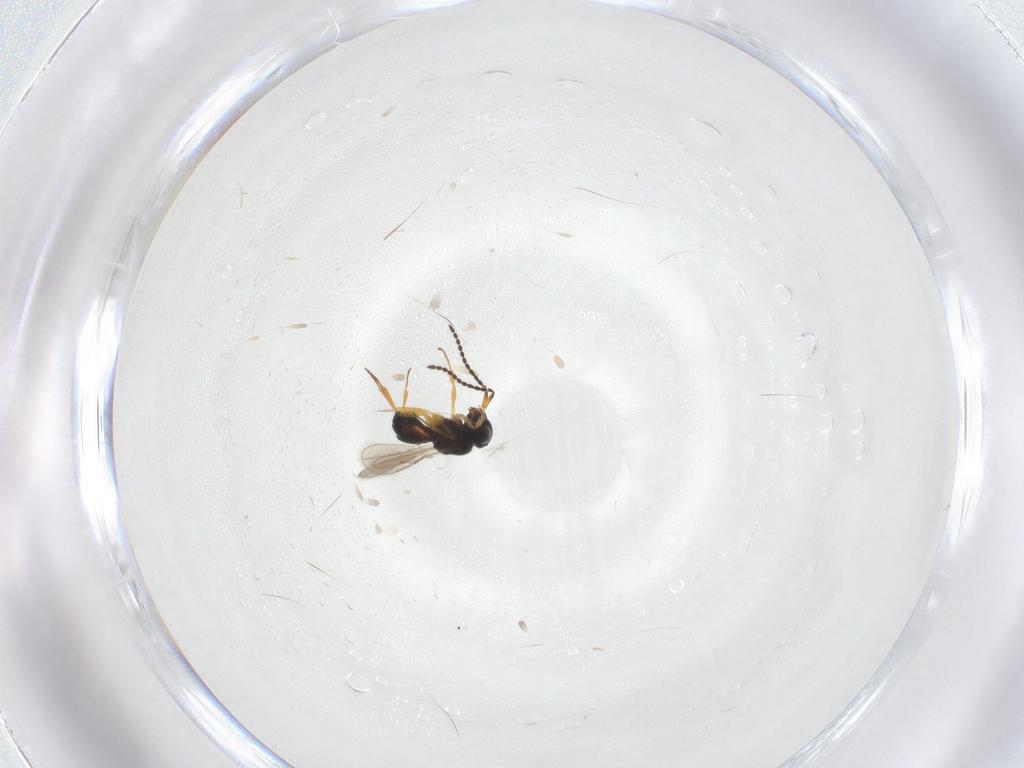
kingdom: Animalia
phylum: Arthropoda
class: Insecta
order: Hymenoptera
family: Scelionidae
